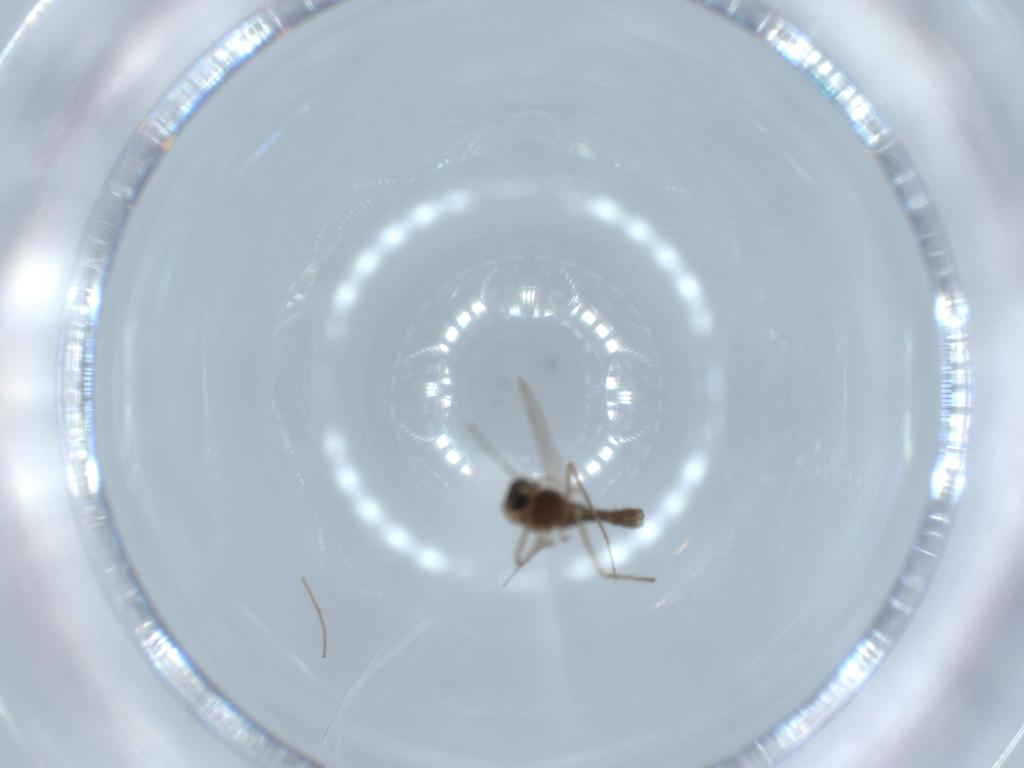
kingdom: Animalia
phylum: Arthropoda
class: Insecta
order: Diptera
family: Chironomidae
